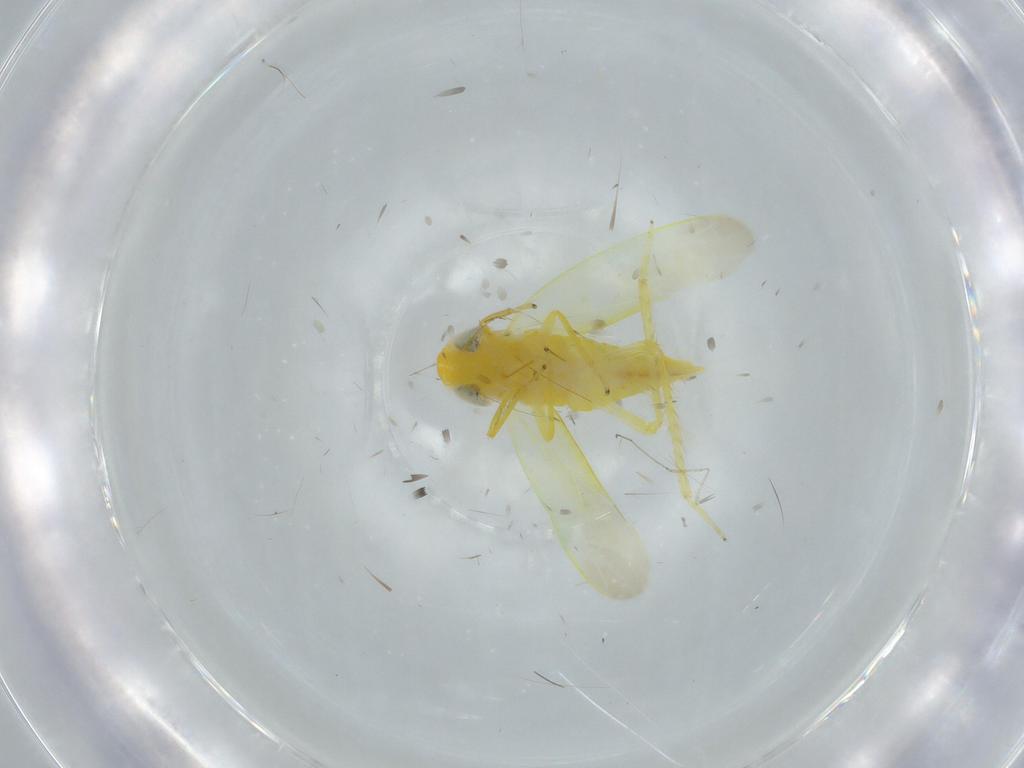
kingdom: Animalia
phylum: Arthropoda
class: Insecta
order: Hemiptera
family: Cicadellidae
